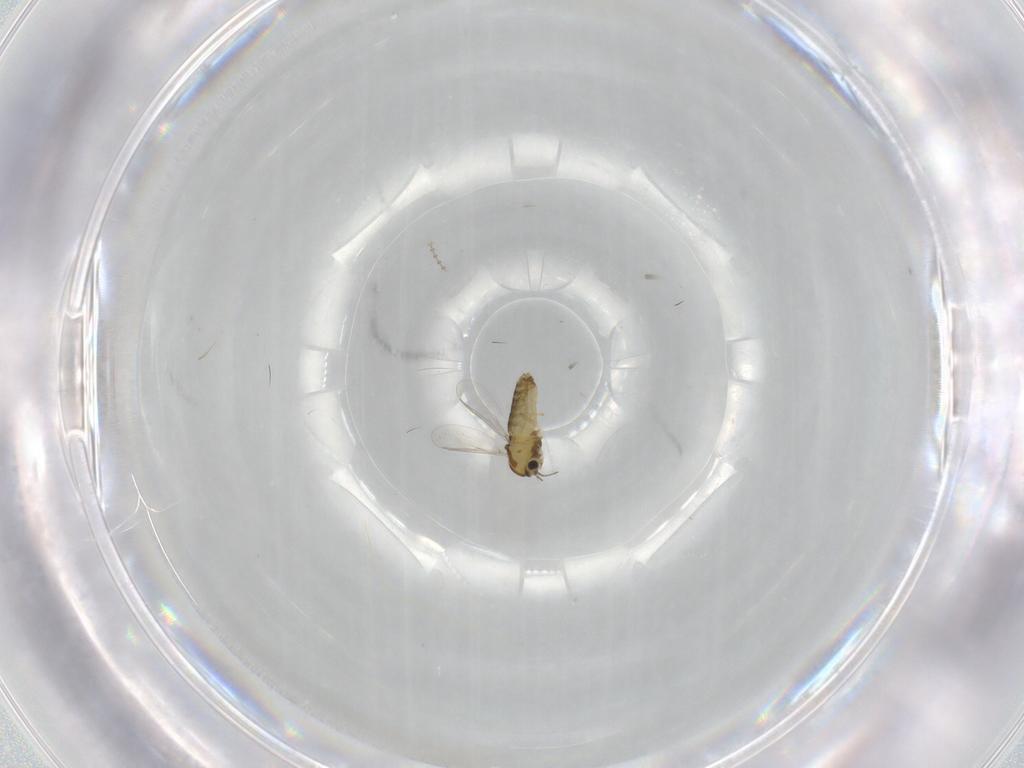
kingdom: Animalia
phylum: Arthropoda
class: Insecta
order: Diptera
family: Chironomidae
